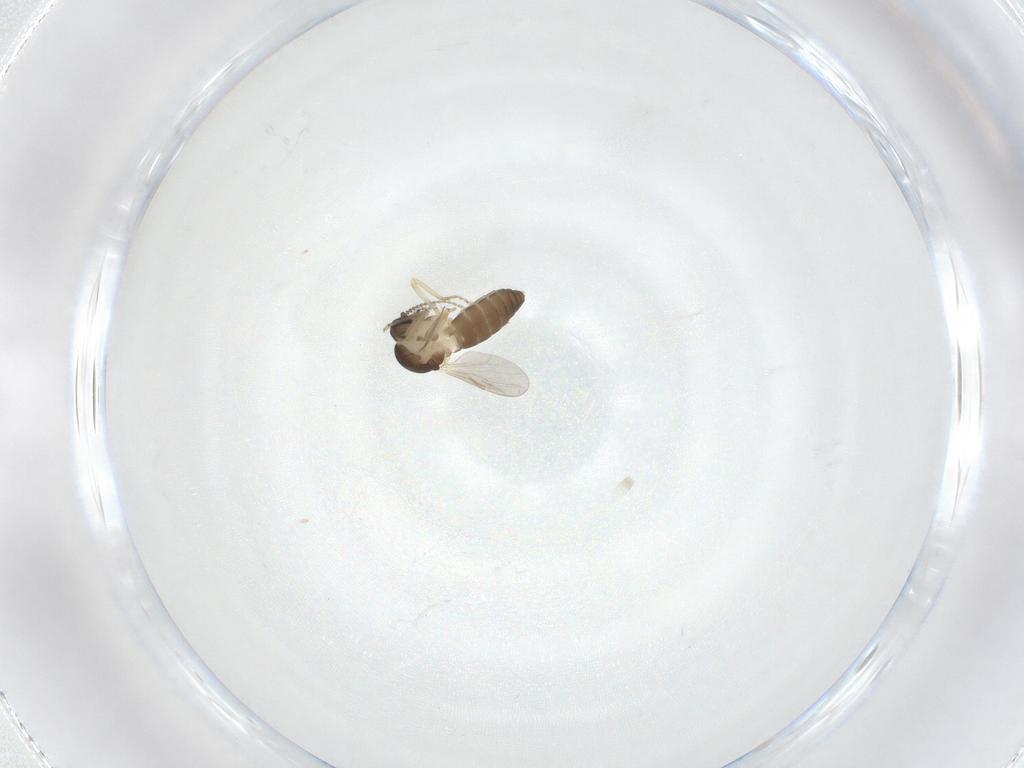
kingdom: Animalia
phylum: Arthropoda
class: Insecta
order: Diptera
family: Ceratopogonidae
